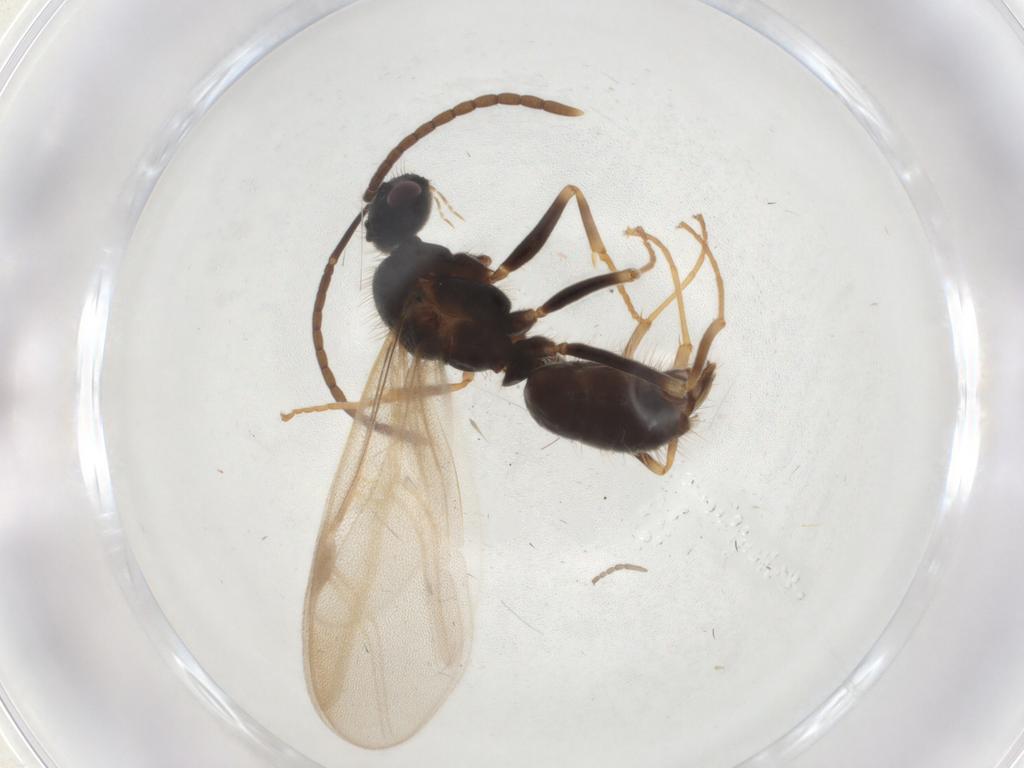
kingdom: Animalia
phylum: Arthropoda
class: Insecta
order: Hymenoptera
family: Formicidae
